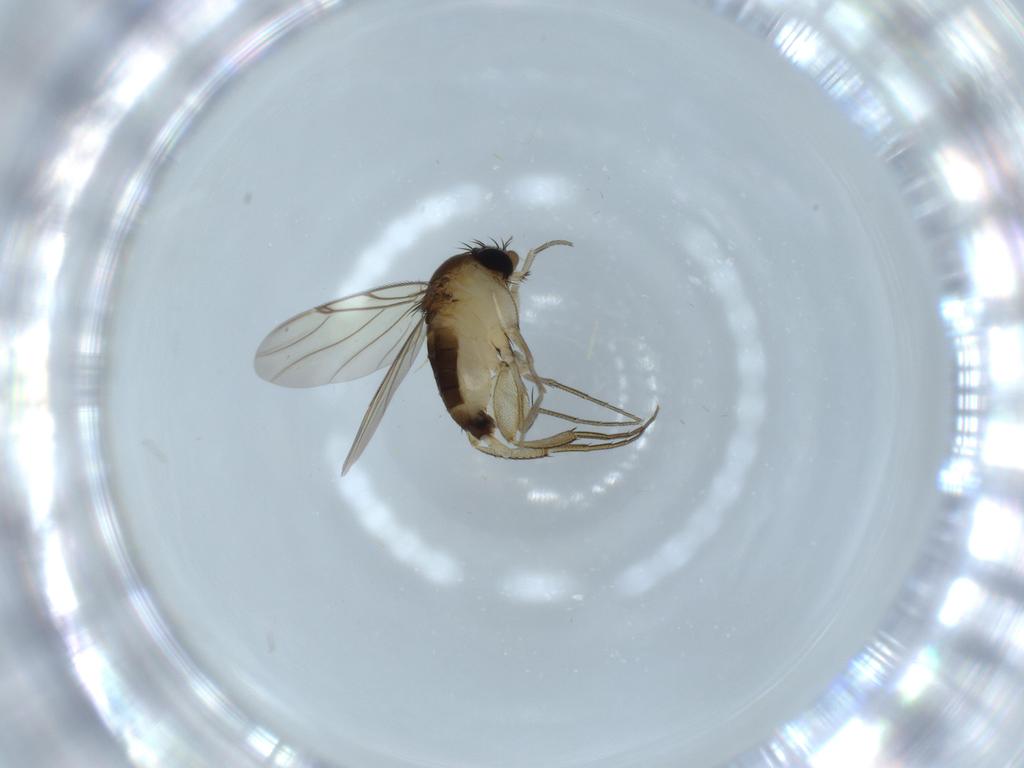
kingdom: Animalia
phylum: Arthropoda
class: Insecta
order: Diptera
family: Phoridae
